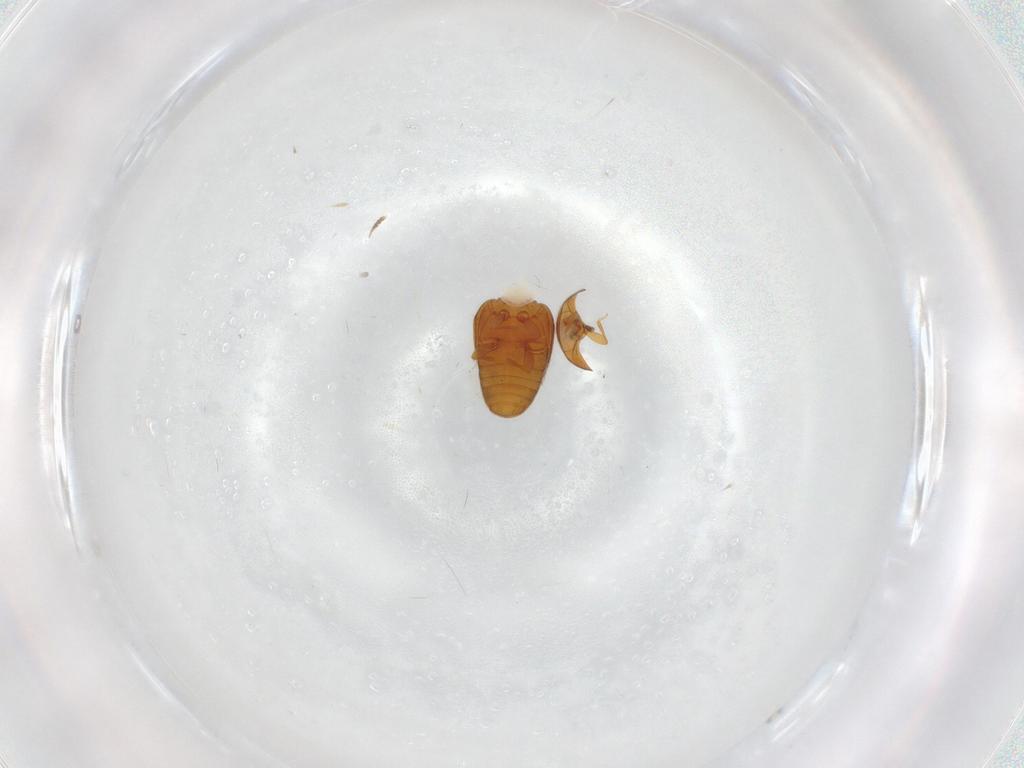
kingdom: Animalia
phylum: Arthropoda
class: Insecta
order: Coleoptera
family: Corylophidae
